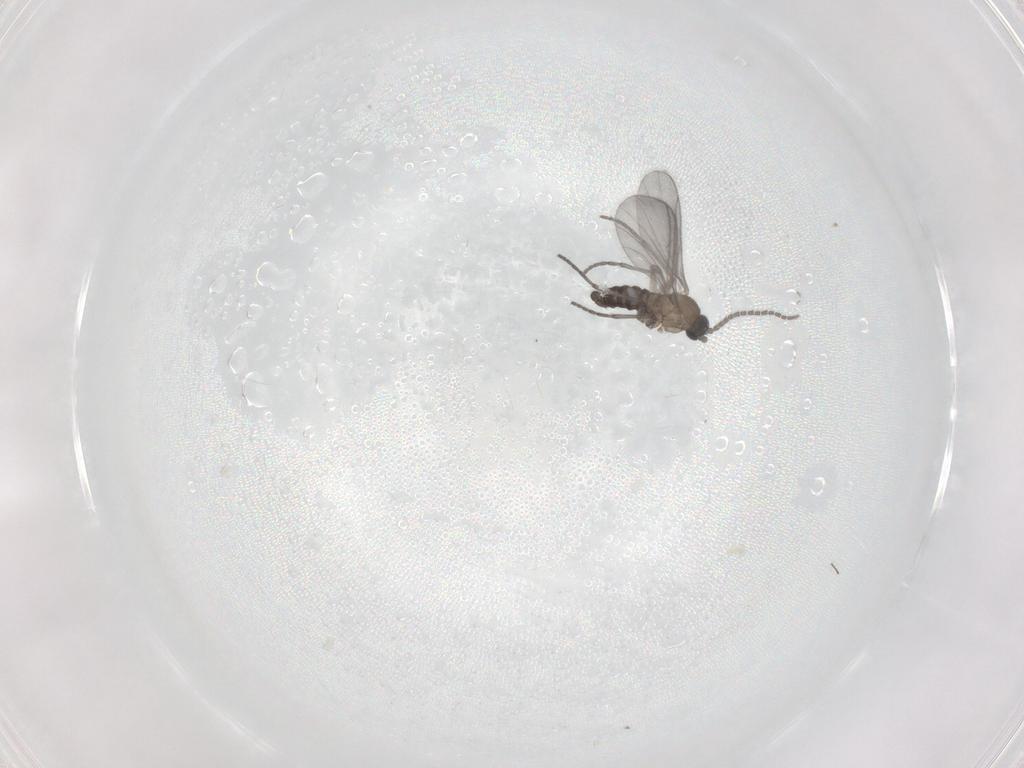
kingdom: Animalia
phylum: Arthropoda
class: Insecta
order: Diptera
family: Sciaridae
